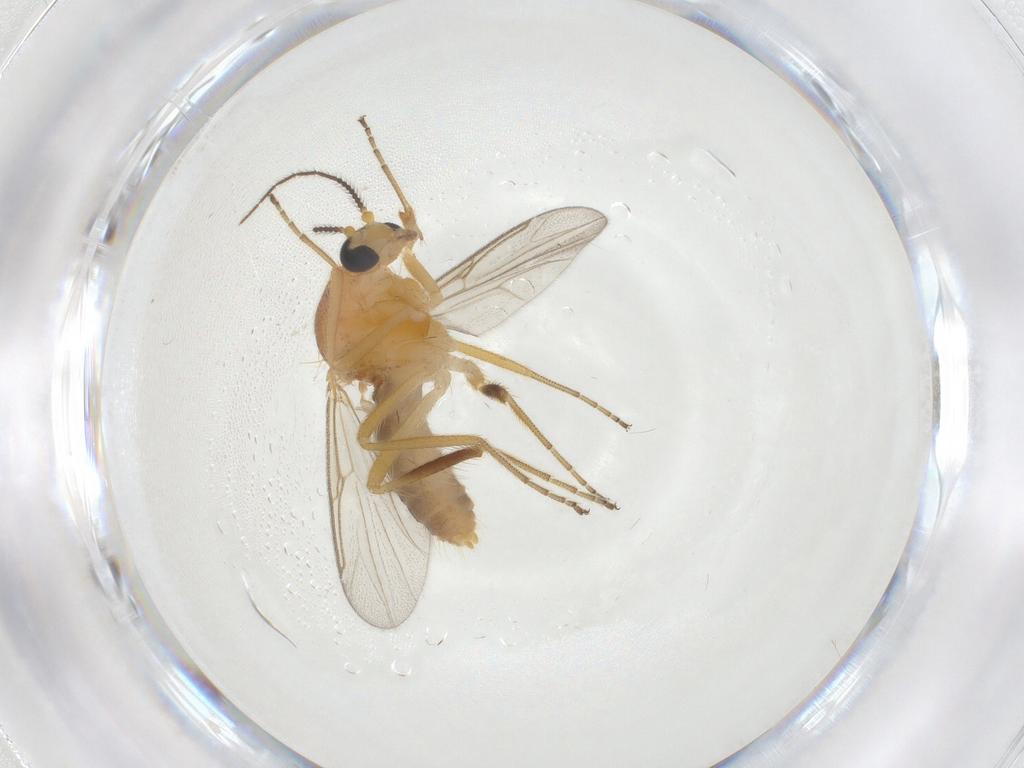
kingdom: Animalia
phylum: Arthropoda
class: Insecta
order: Diptera
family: Ceratopogonidae
